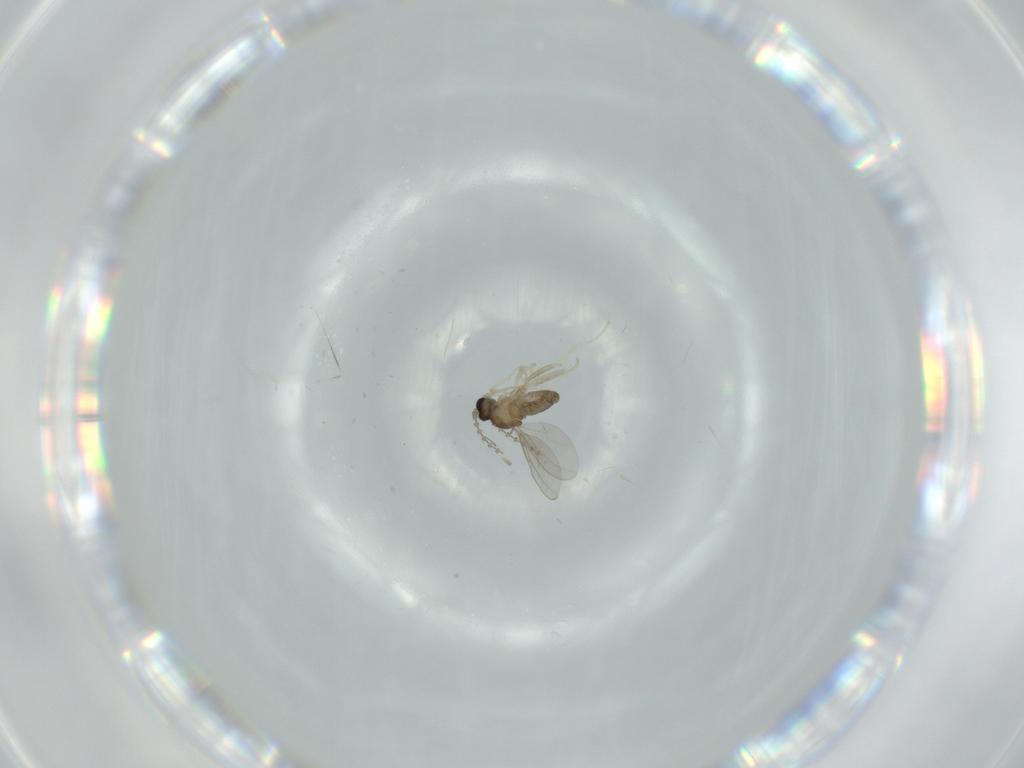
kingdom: Animalia
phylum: Arthropoda
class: Insecta
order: Diptera
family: Cecidomyiidae
